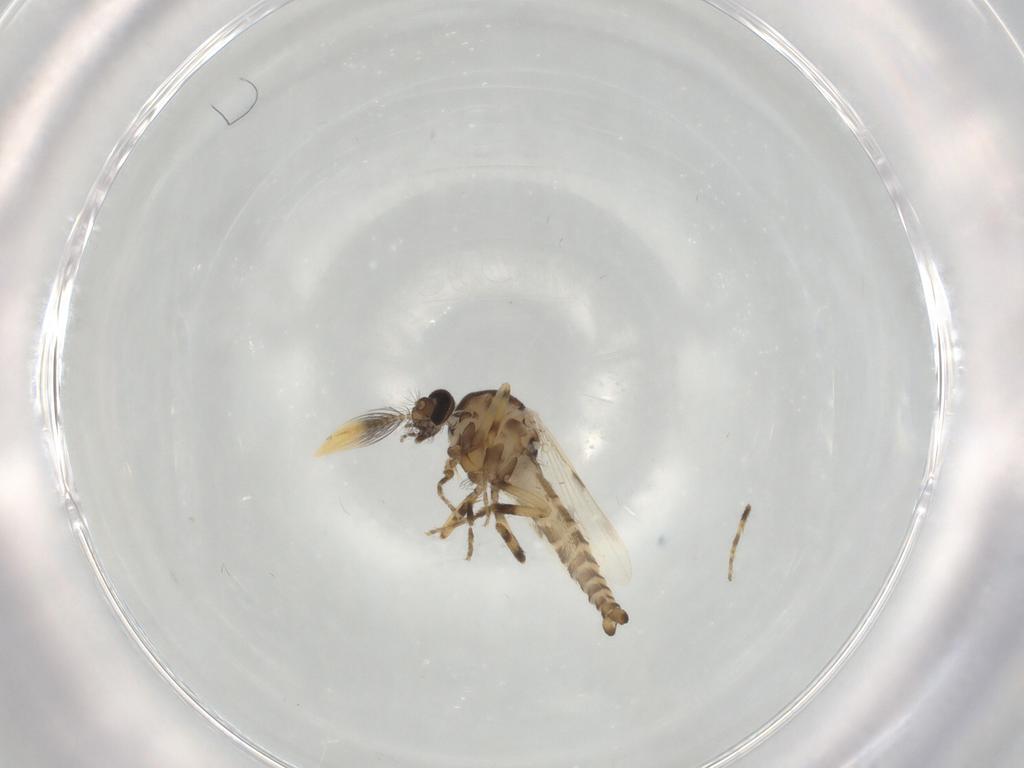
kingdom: Animalia
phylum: Arthropoda
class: Insecta
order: Diptera
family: Ceratopogonidae
